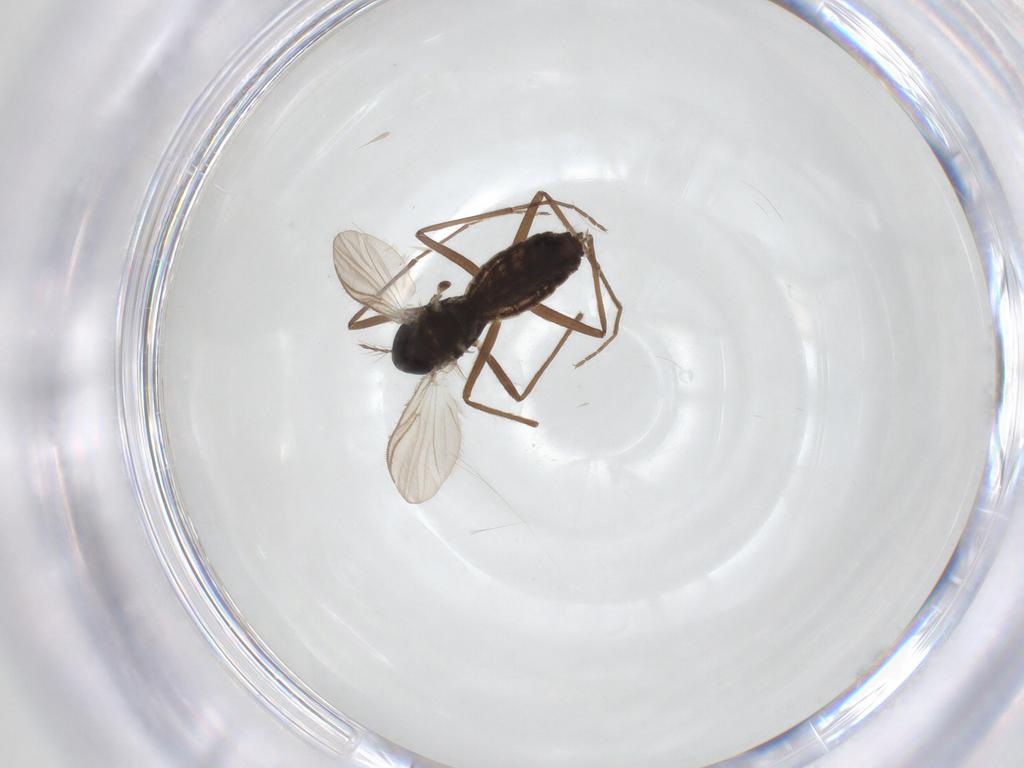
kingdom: Animalia
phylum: Arthropoda
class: Insecta
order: Diptera
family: Chironomidae
